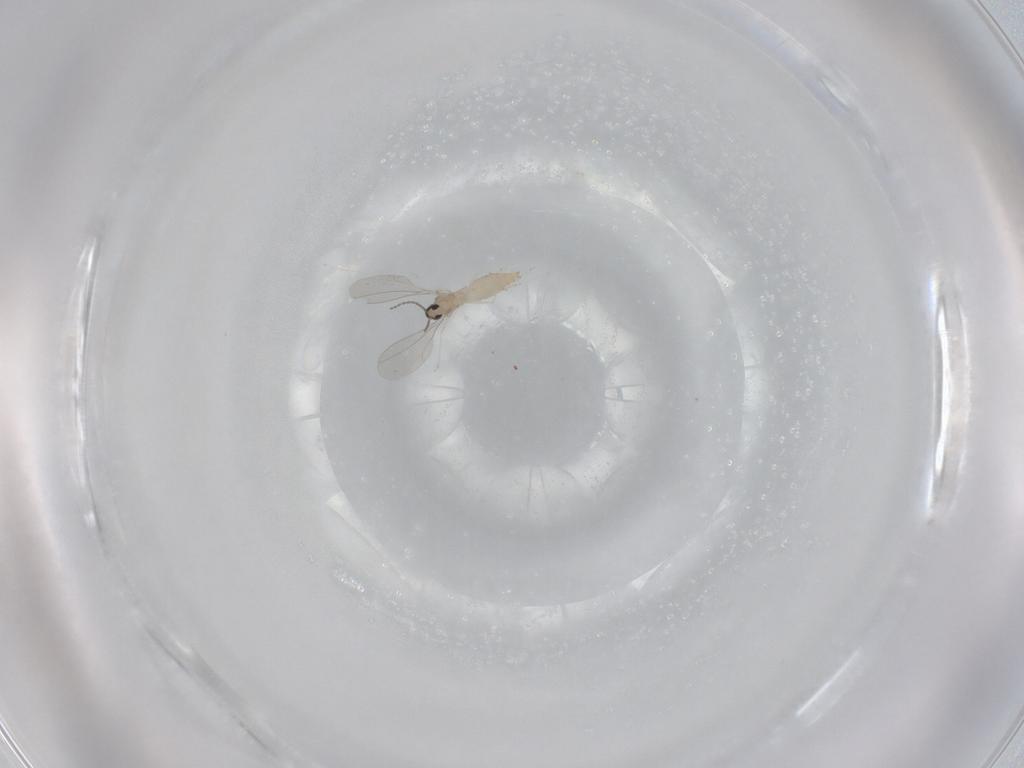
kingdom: Animalia
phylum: Arthropoda
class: Insecta
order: Diptera
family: Cecidomyiidae
